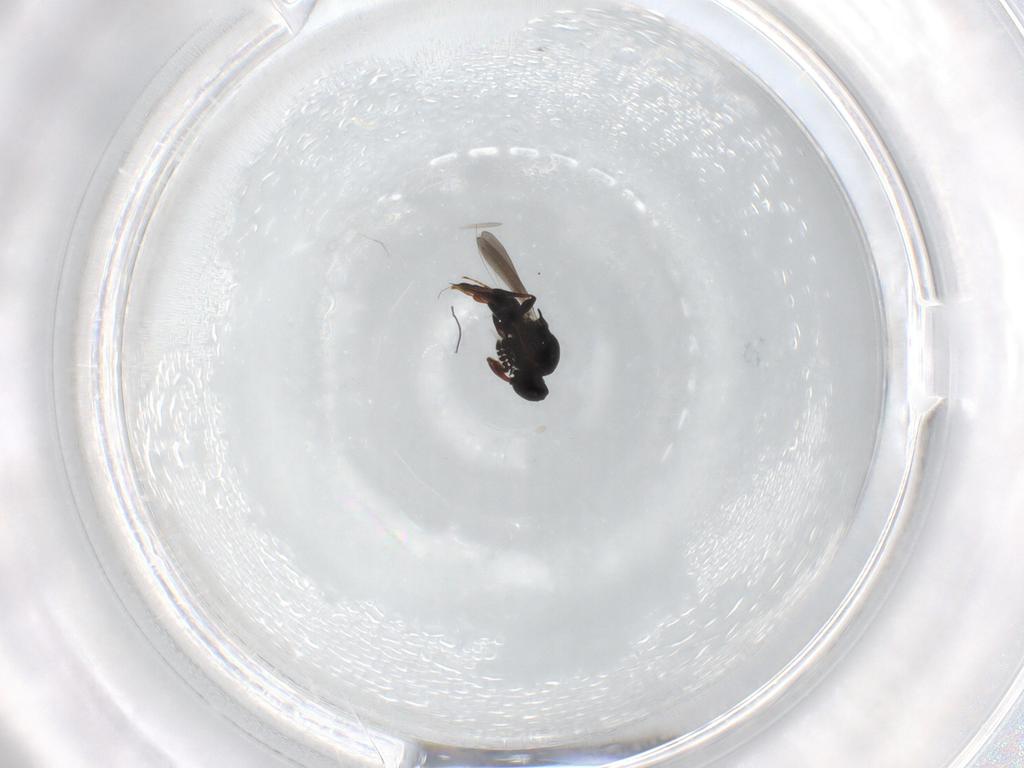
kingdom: Animalia
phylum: Arthropoda
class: Insecta
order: Hymenoptera
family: Platygastridae
